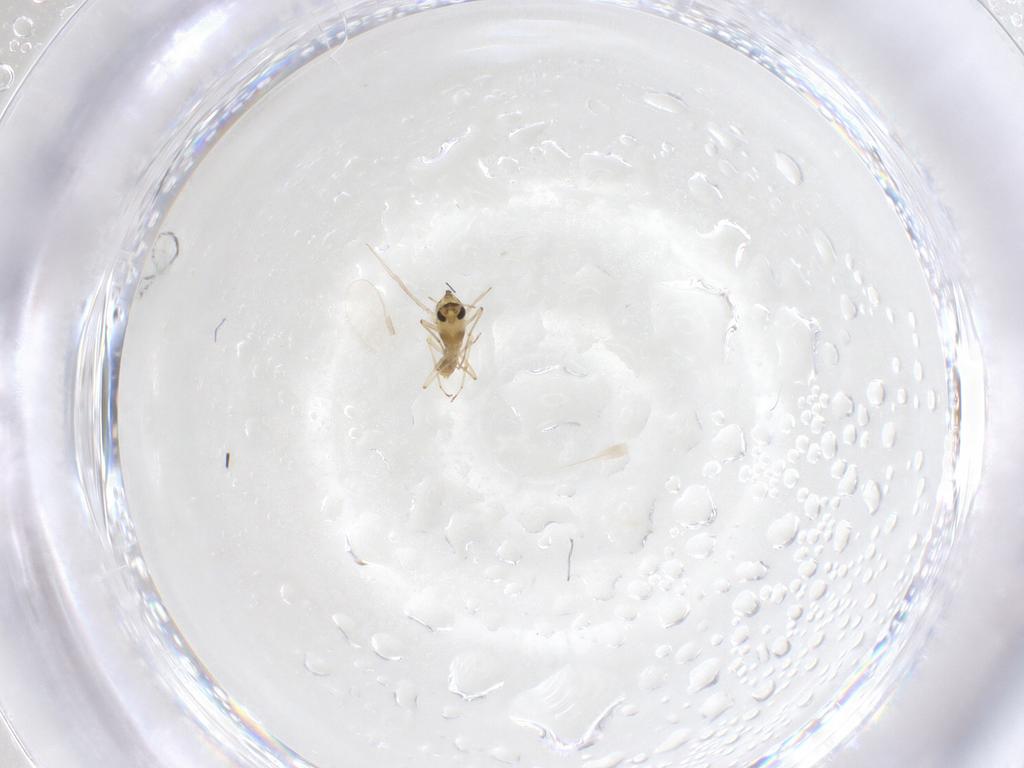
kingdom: Animalia
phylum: Arthropoda
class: Insecta
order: Diptera
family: Chironomidae
